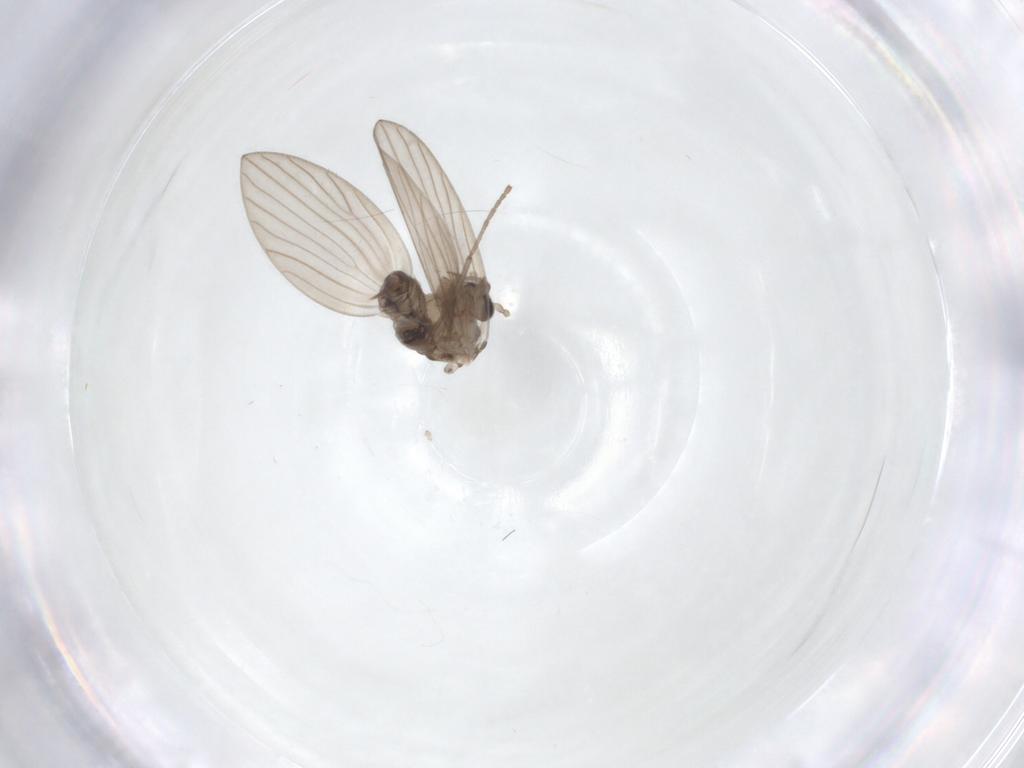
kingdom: Animalia
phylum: Arthropoda
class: Insecta
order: Diptera
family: Psychodidae
